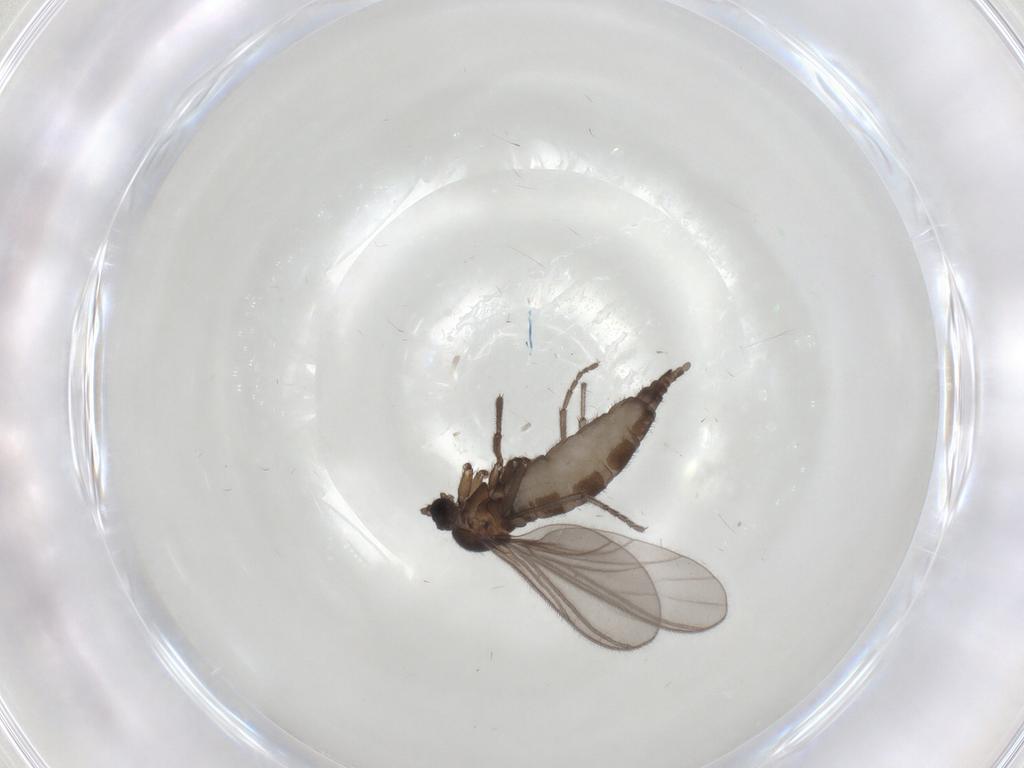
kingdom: Animalia
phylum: Arthropoda
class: Insecta
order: Diptera
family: Sciaridae
